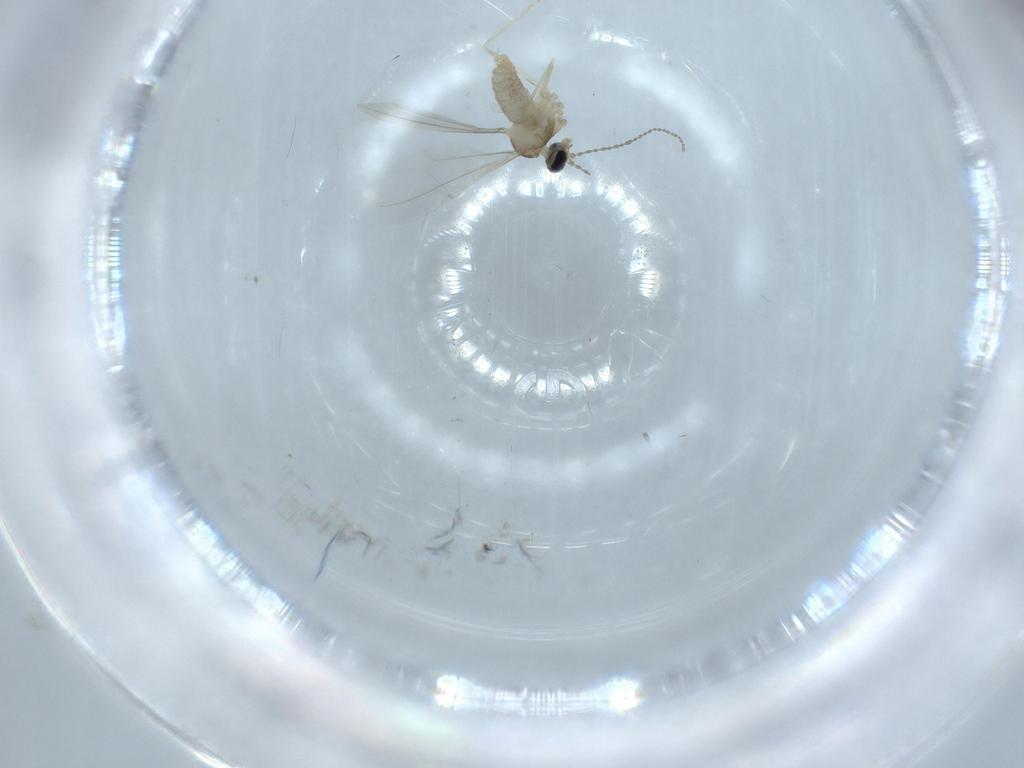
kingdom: Animalia
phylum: Arthropoda
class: Insecta
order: Diptera
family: Cecidomyiidae
